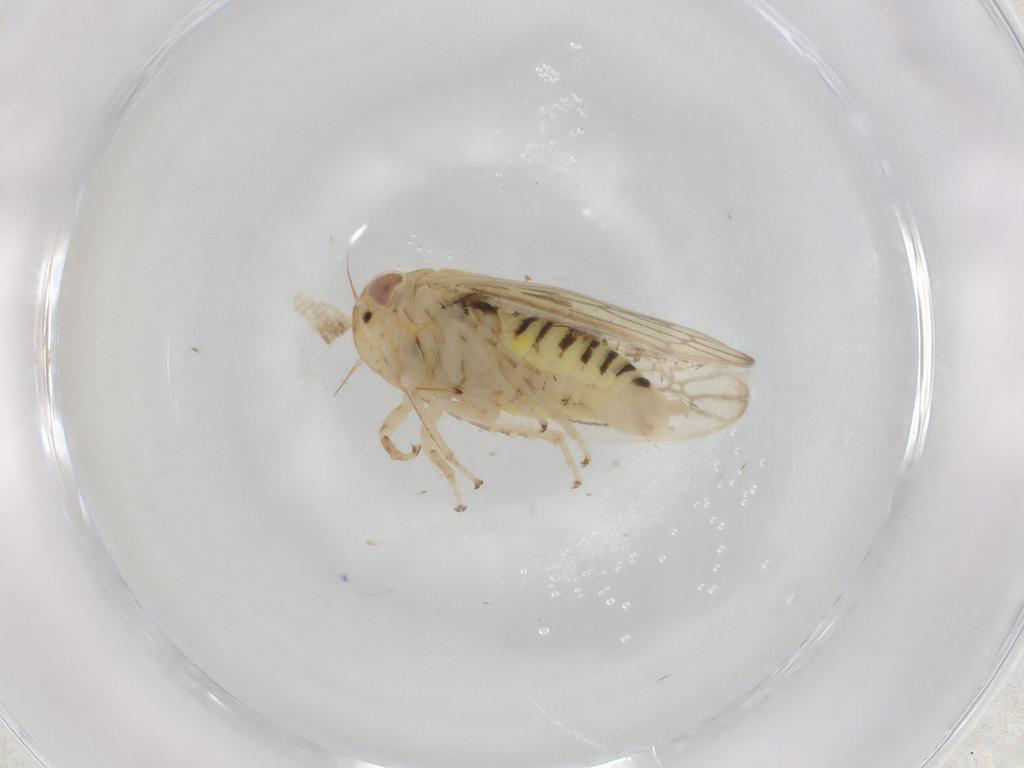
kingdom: Animalia
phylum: Arthropoda
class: Insecta
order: Hemiptera
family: Cicadellidae
